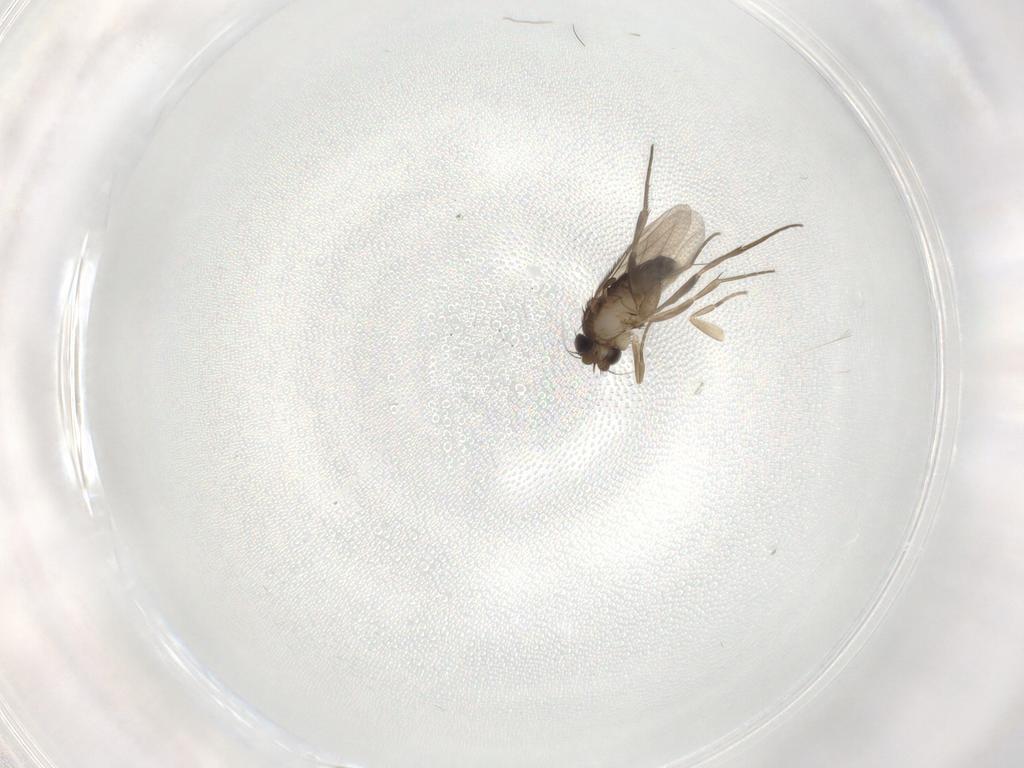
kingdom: Animalia
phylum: Arthropoda
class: Insecta
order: Diptera
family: Phoridae
